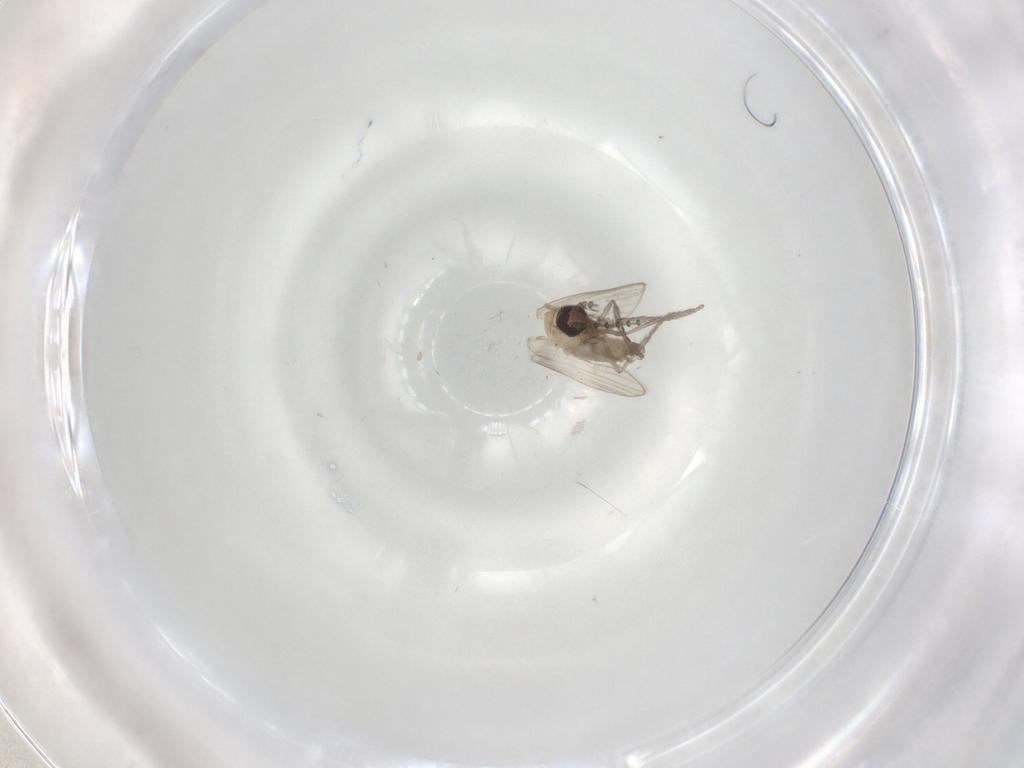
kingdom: Animalia
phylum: Arthropoda
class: Insecta
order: Diptera
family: Psychodidae
